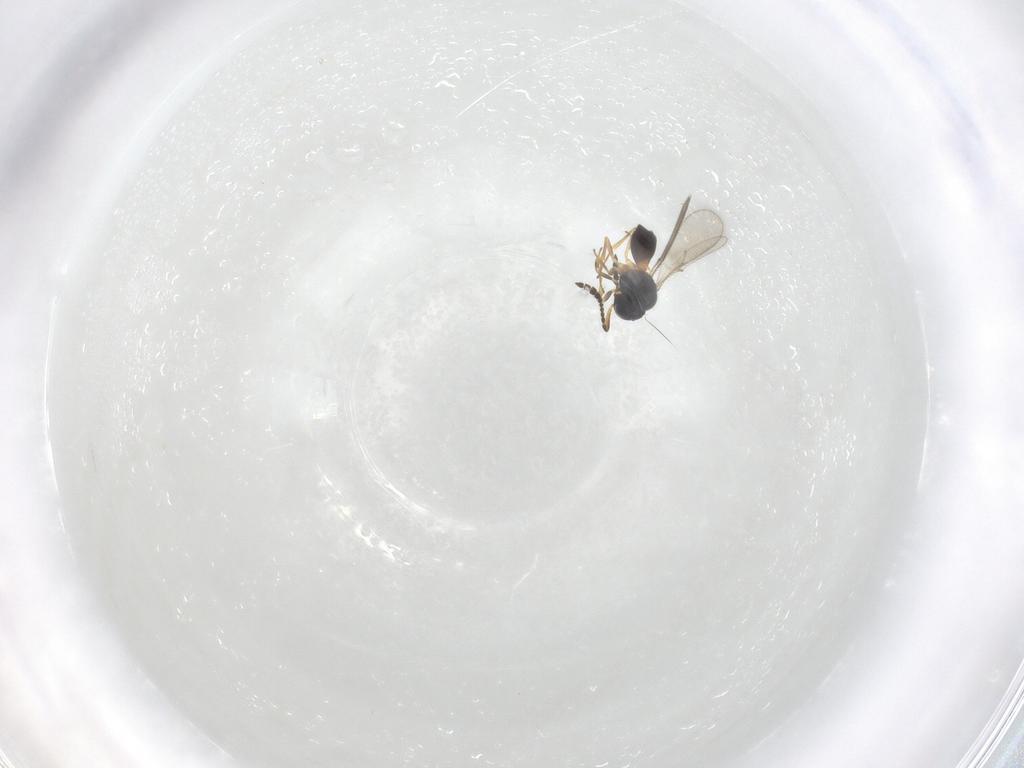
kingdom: Animalia
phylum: Arthropoda
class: Insecta
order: Hymenoptera
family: Scelionidae
